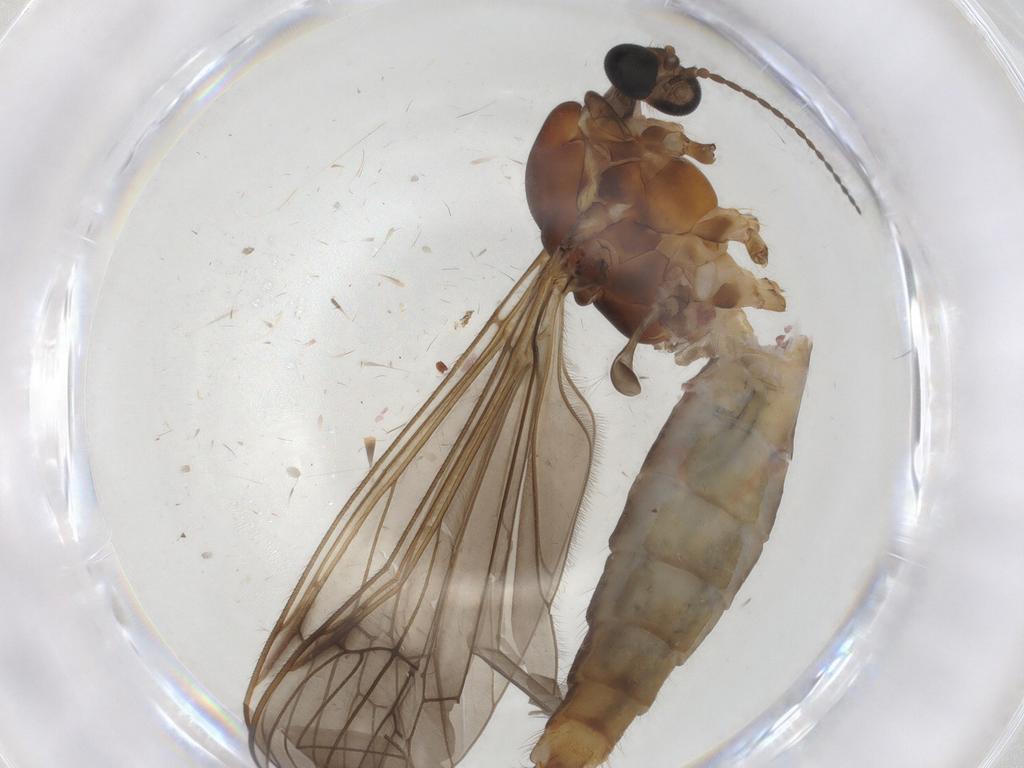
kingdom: Animalia
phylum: Arthropoda
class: Insecta
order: Diptera
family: Limoniidae
